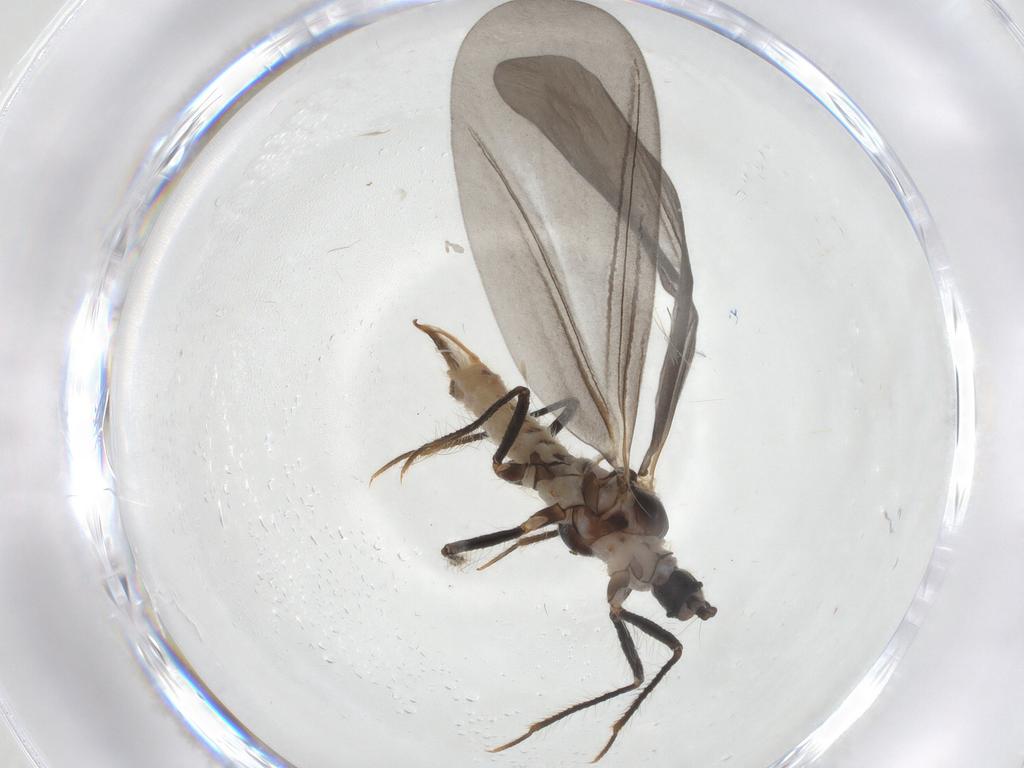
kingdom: Animalia
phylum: Arthropoda
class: Insecta
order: Hemiptera
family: Putoidae
